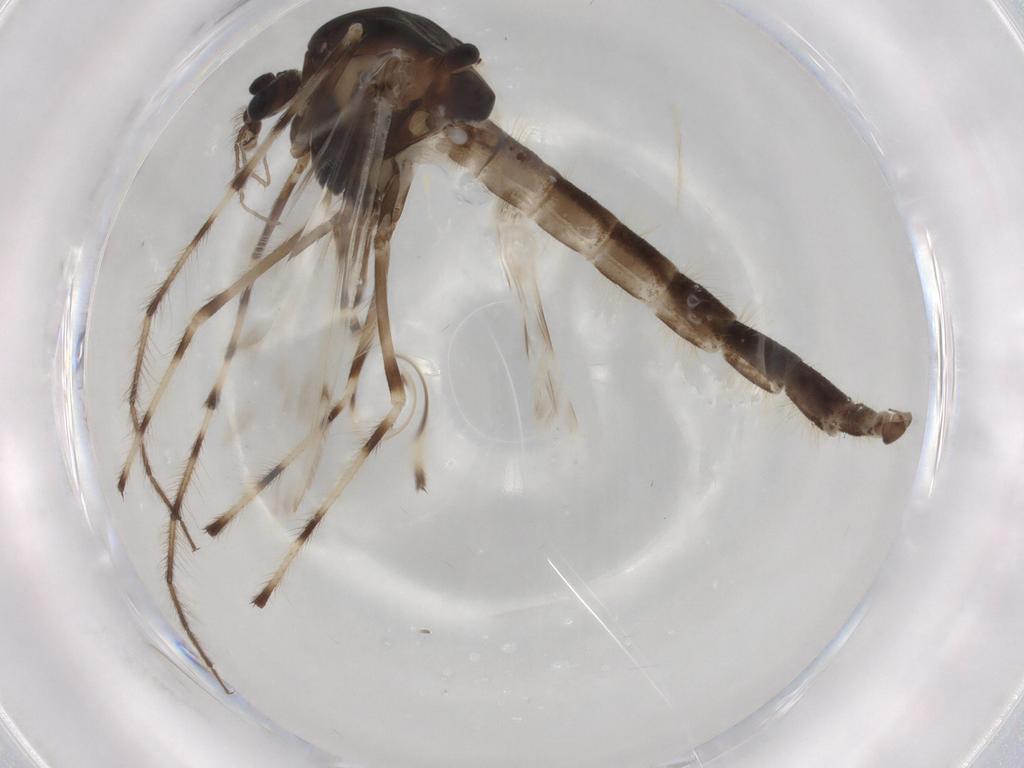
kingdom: Animalia
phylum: Arthropoda
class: Insecta
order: Diptera
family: Chironomidae
